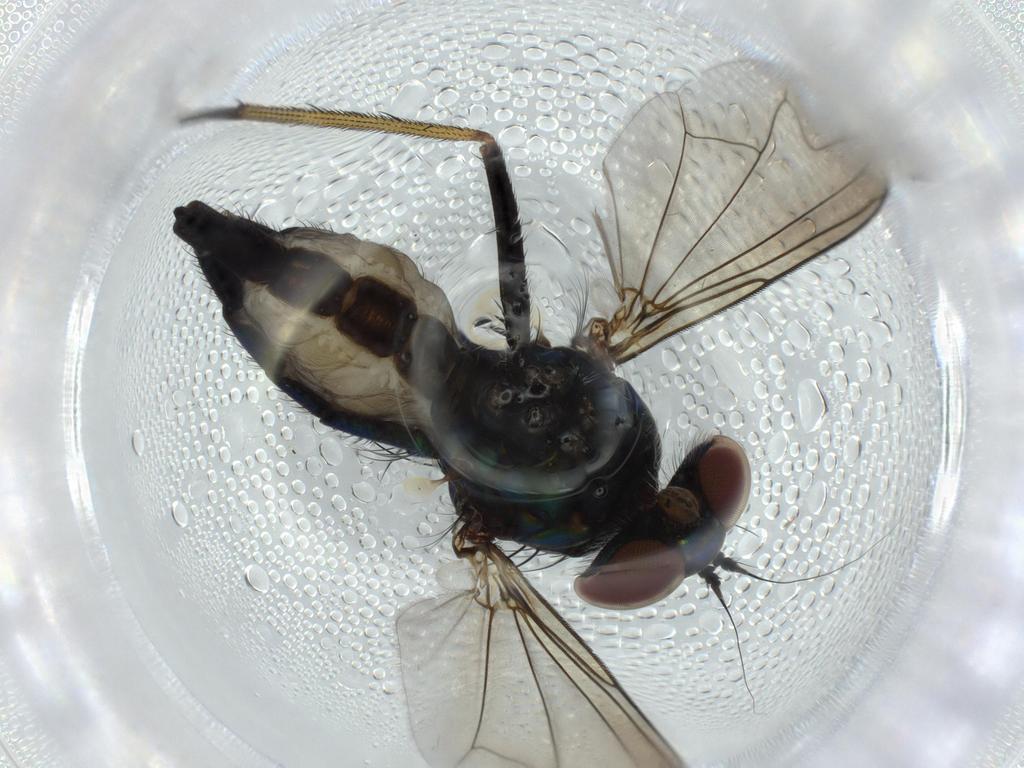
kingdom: Animalia
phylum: Arthropoda
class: Insecta
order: Diptera
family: Dolichopodidae
